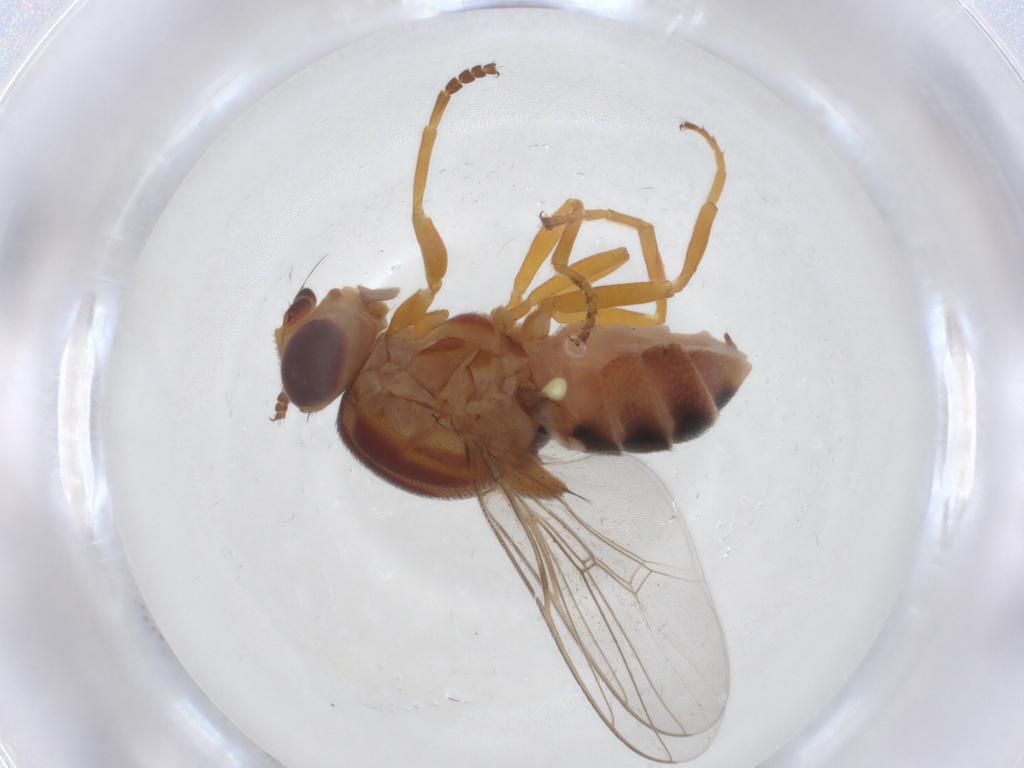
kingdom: Animalia
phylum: Arthropoda
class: Insecta
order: Diptera
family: Chloropidae
